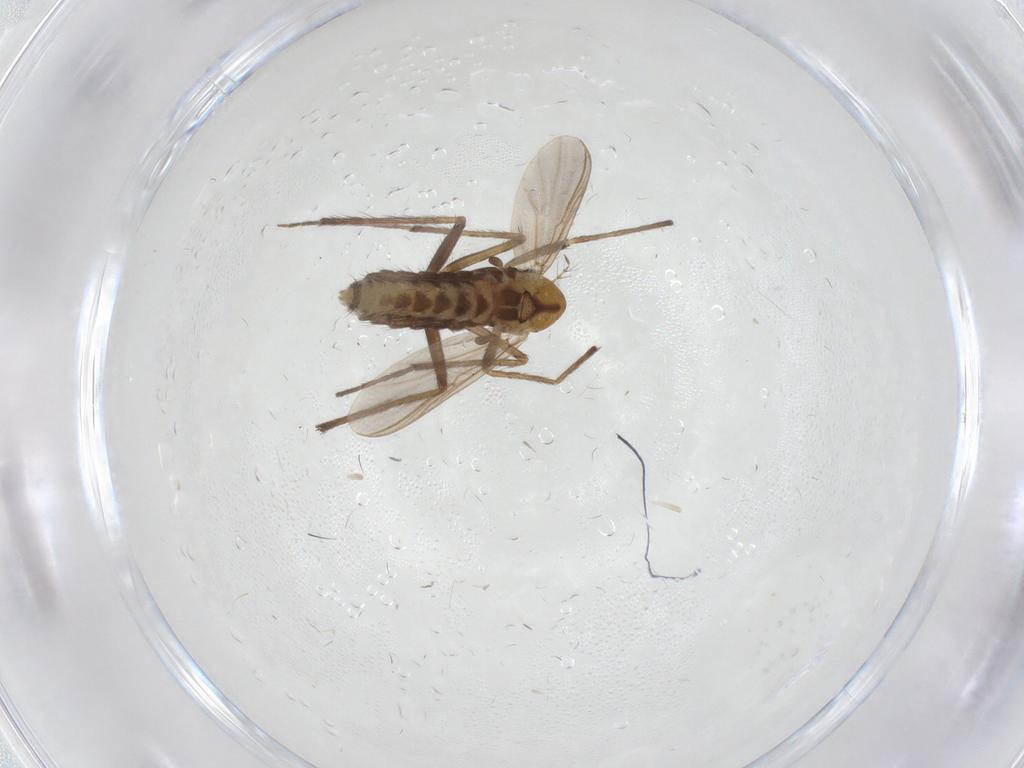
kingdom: Animalia
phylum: Arthropoda
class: Insecta
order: Diptera
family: Chironomidae
